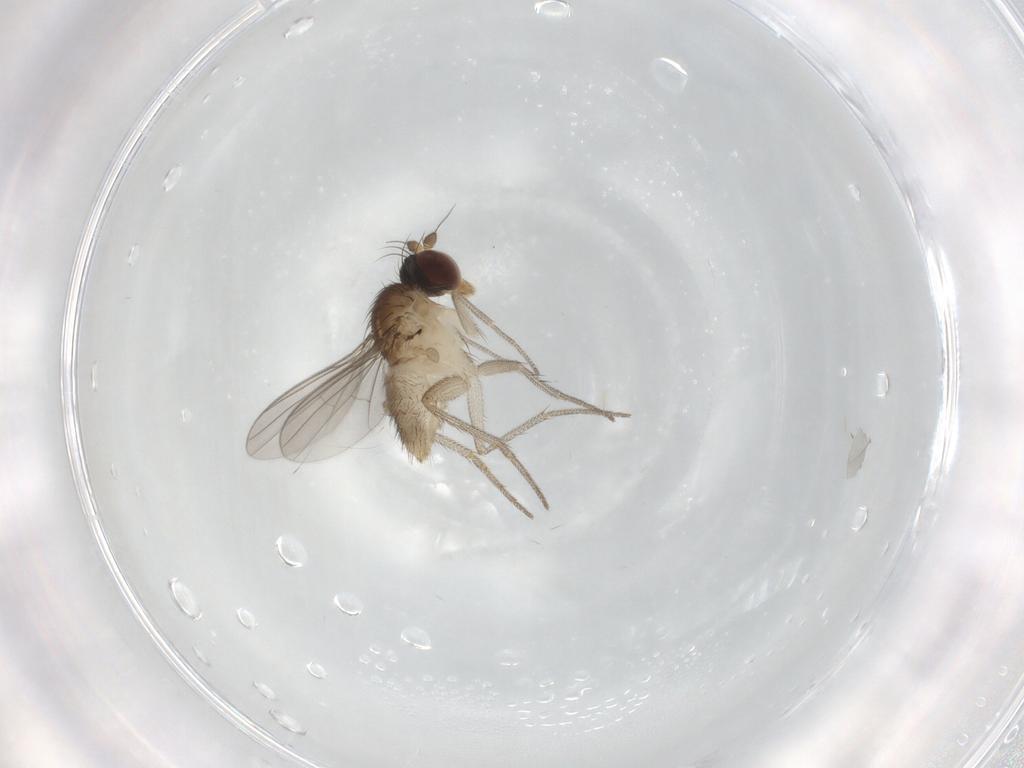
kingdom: Animalia
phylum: Arthropoda
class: Insecta
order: Diptera
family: Dolichopodidae
